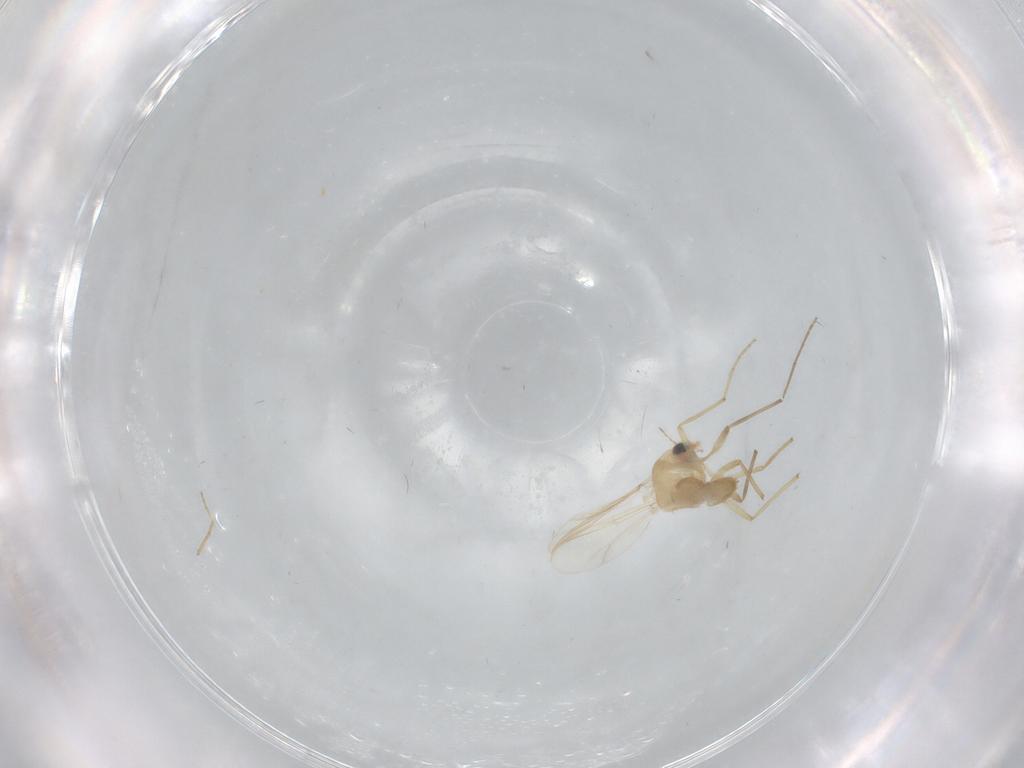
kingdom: Animalia
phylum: Arthropoda
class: Insecta
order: Diptera
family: Chironomidae
